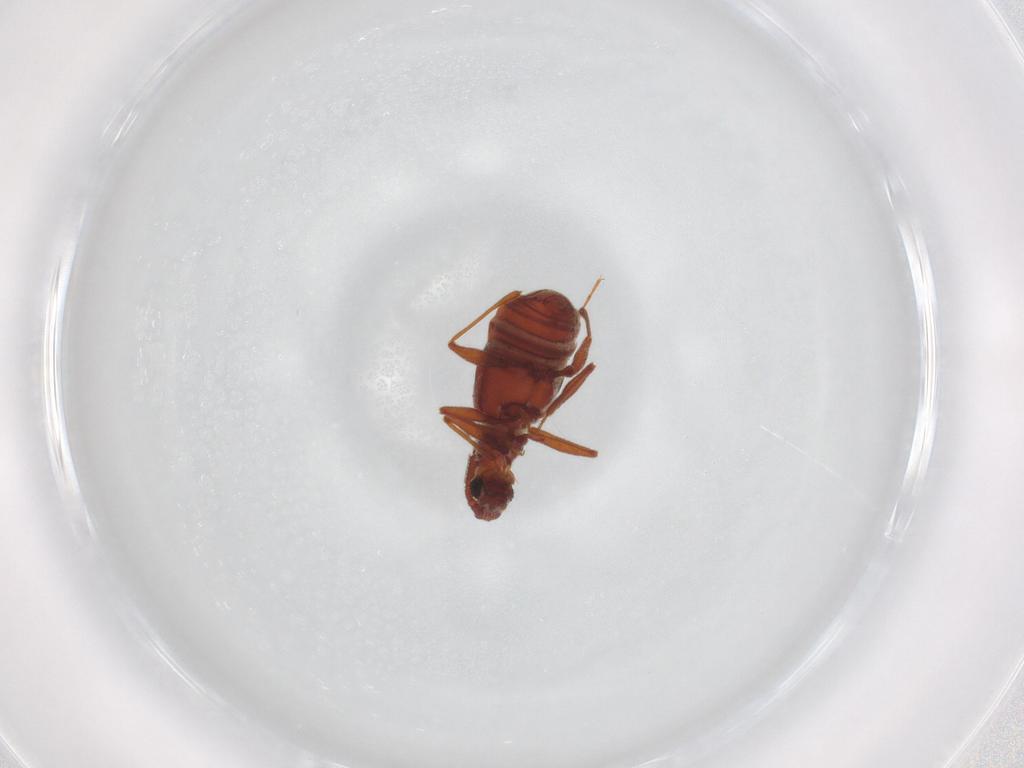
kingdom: Animalia
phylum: Arthropoda
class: Insecta
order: Coleoptera
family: Staphylinidae
